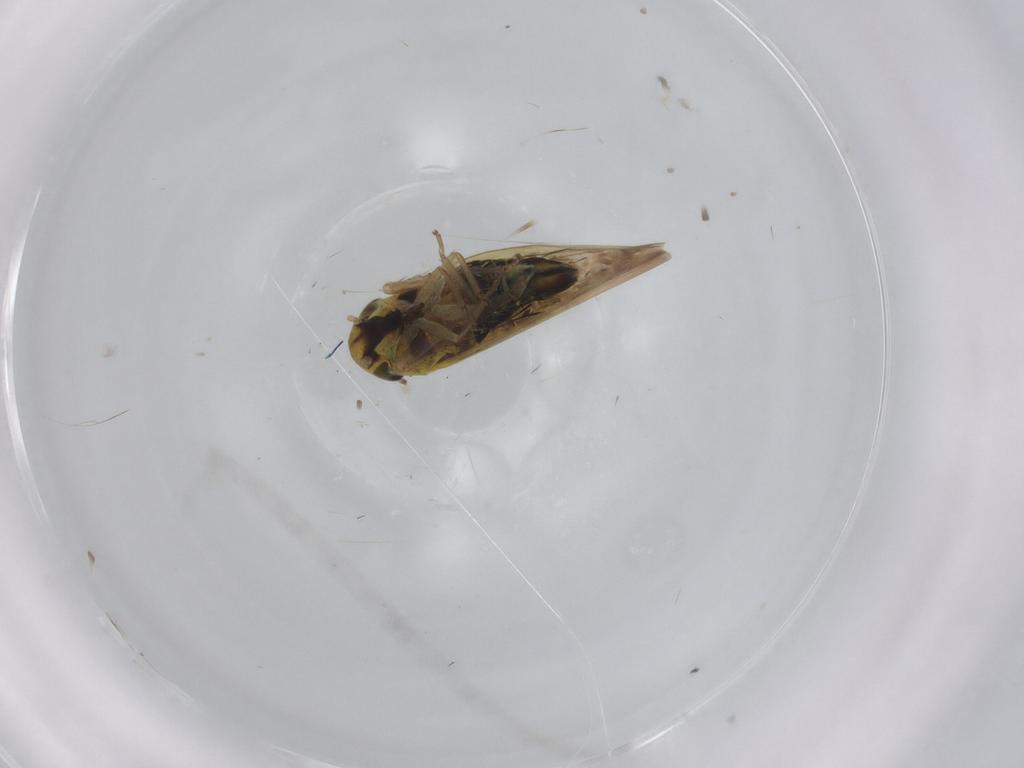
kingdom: Animalia
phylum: Arthropoda
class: Insecta
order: Hemiptera
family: Cicadellidae
